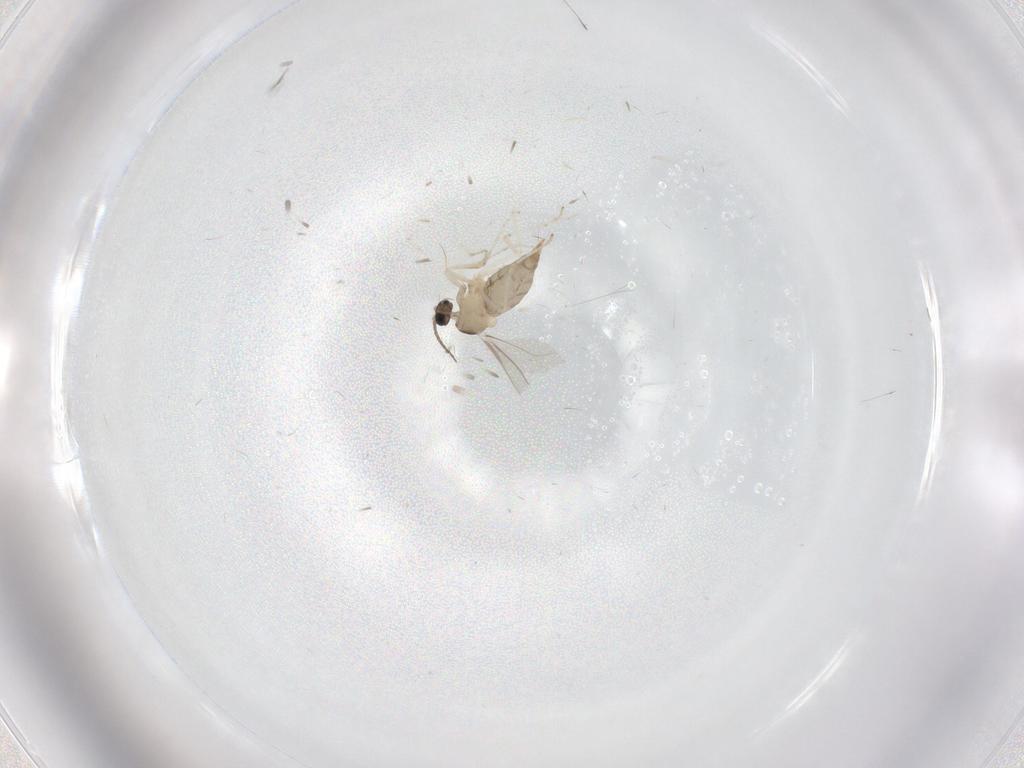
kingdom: Animalia
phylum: Arthropoda
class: Insecta
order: Diptera
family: Cecidomyiidae
